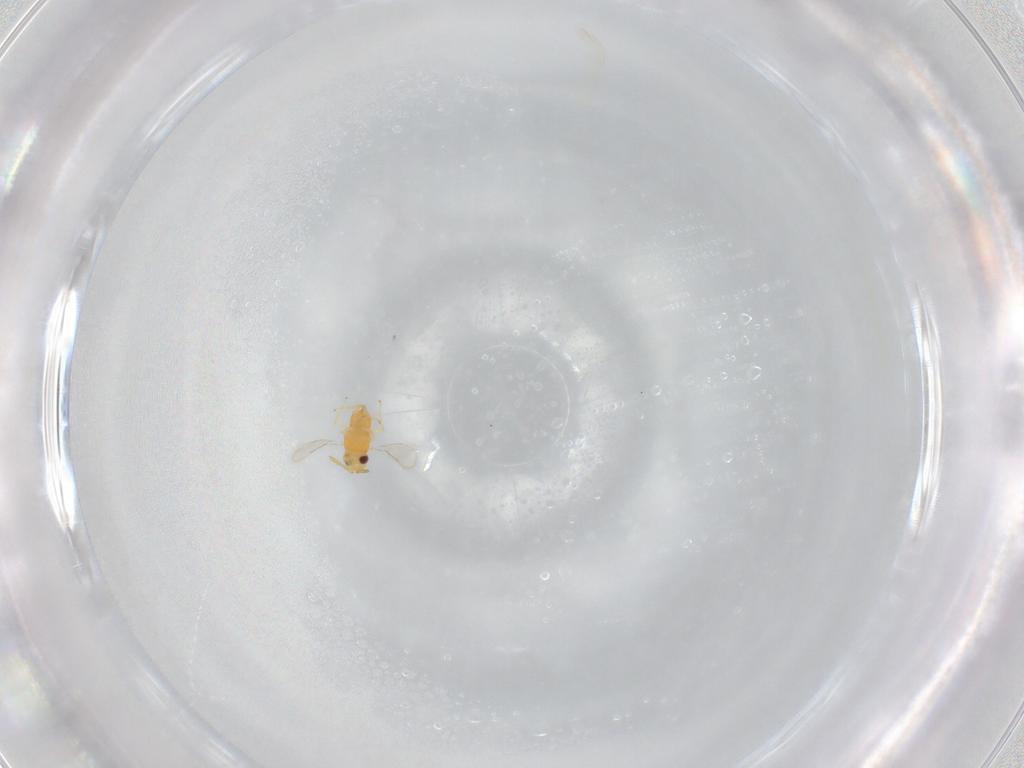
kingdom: Animalia
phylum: Arthropoda
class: Insecta
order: Hymenoptera
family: Aphelinidae
